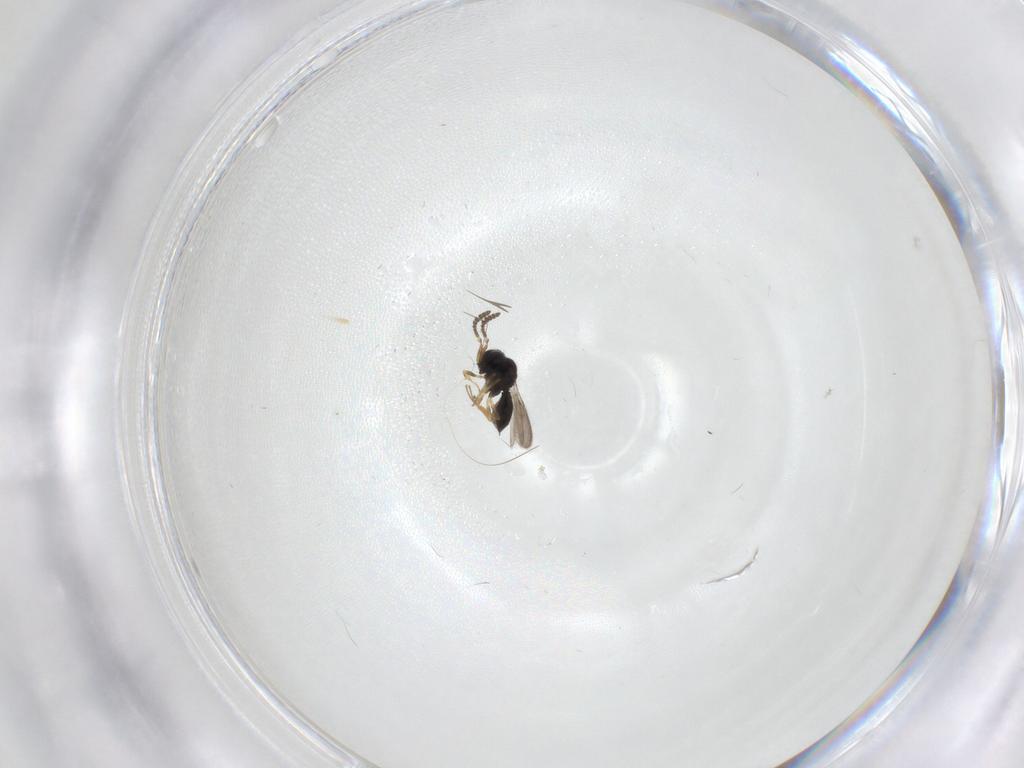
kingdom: Animalia
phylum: Arthropoda
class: Insecta
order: Hymenoptera
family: Scelionidae
